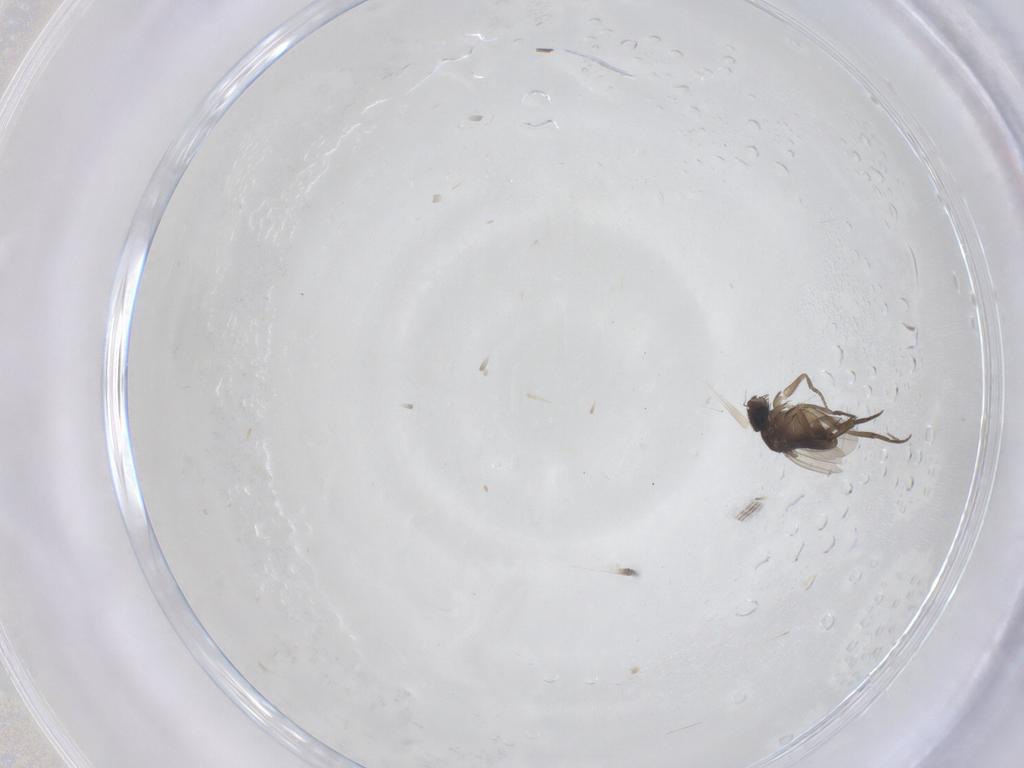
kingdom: Animalia
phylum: Arthropoda
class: Insecta
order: Diptera
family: Phoridae
